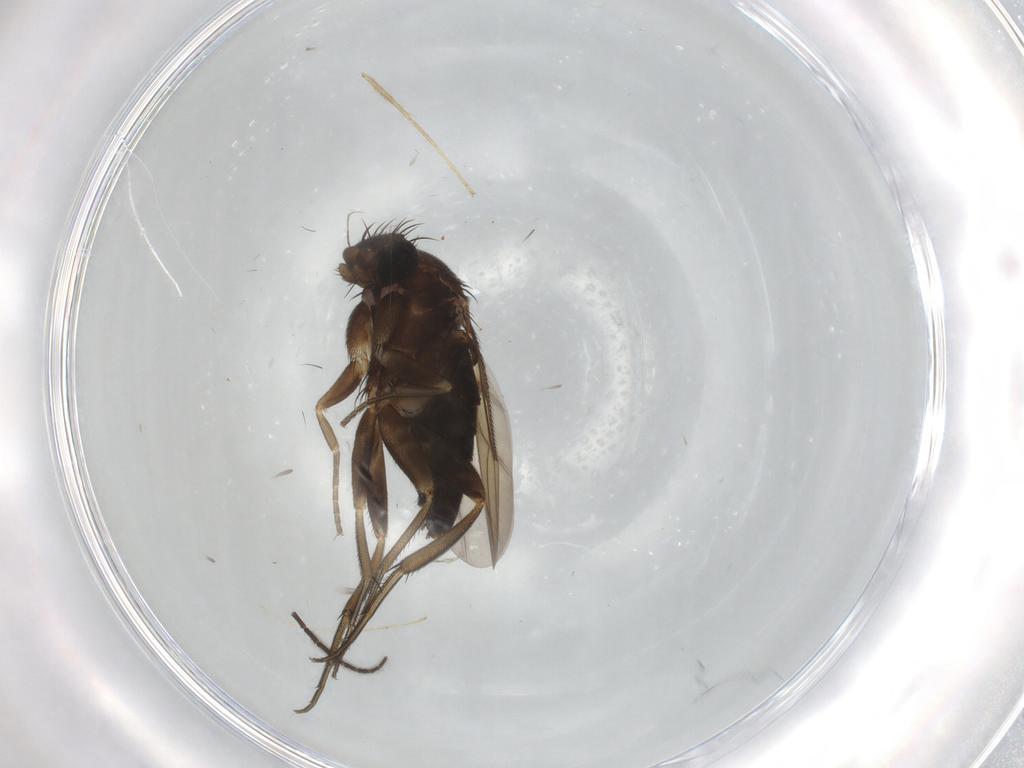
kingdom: Animalia
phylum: Arthropoda
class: Insecta
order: Diptera
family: Phoridae
